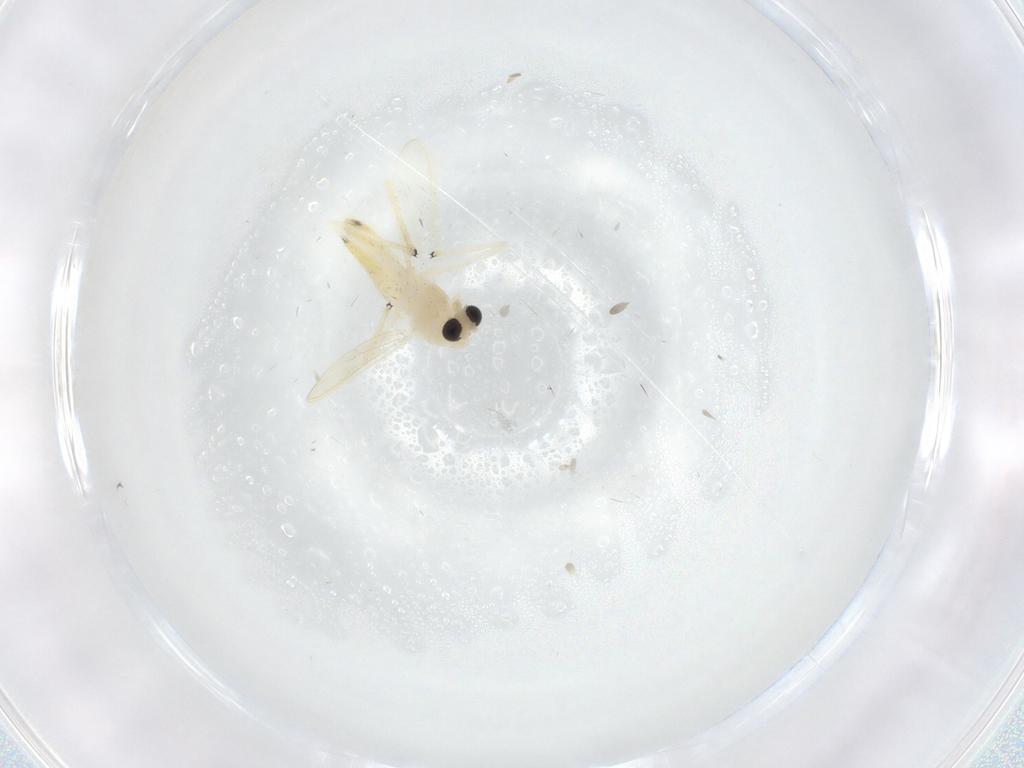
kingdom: Animalia
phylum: Arthropoda
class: Insecta
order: Diptera
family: Chironomidae
